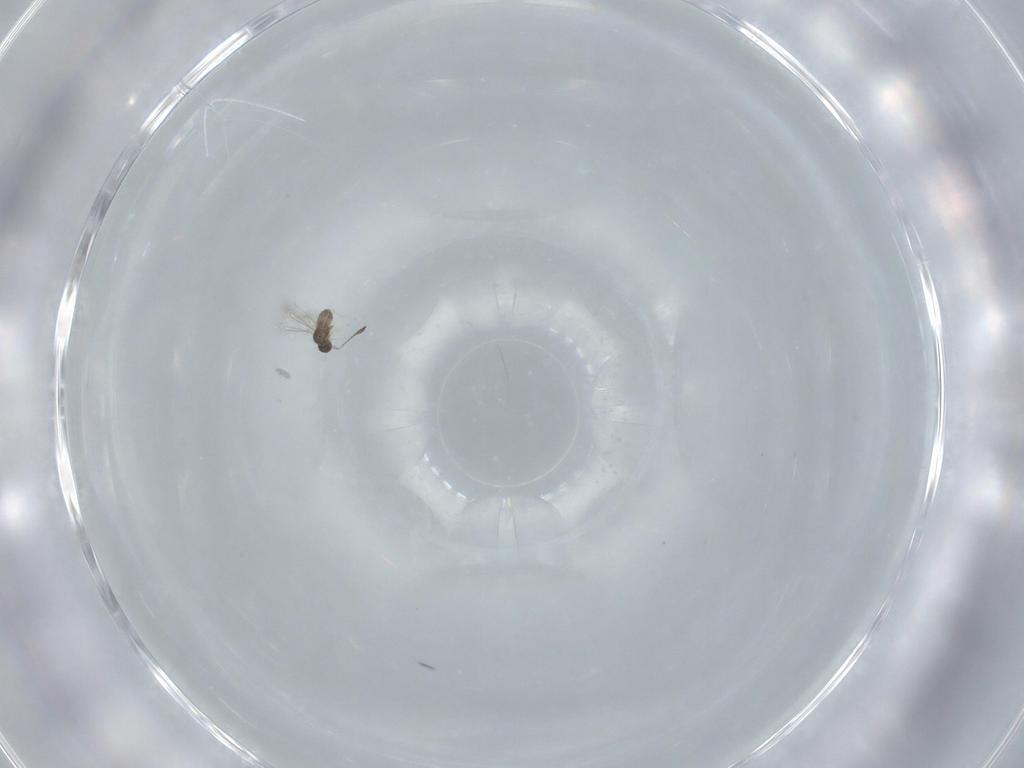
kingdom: Animalia
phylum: Arthropoda
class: Insecta
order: Hymenoptera
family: Mymaridae
